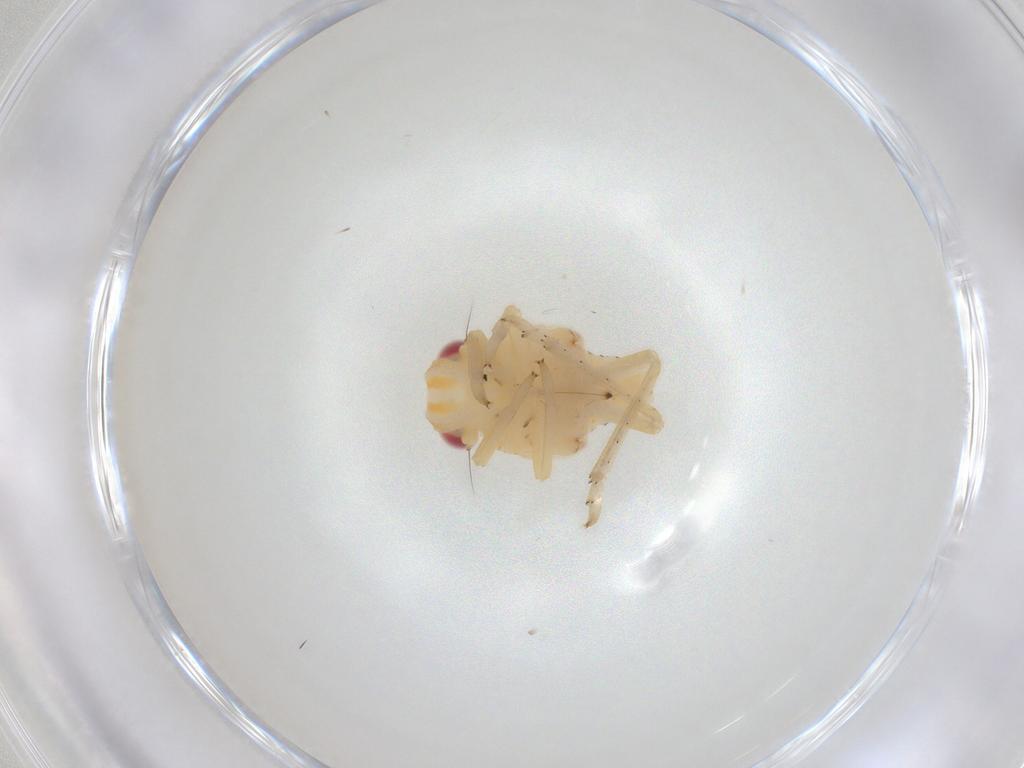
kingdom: Animalia
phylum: Arthropoda
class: Insecta
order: Hemiptera
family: Tropiduchidae
